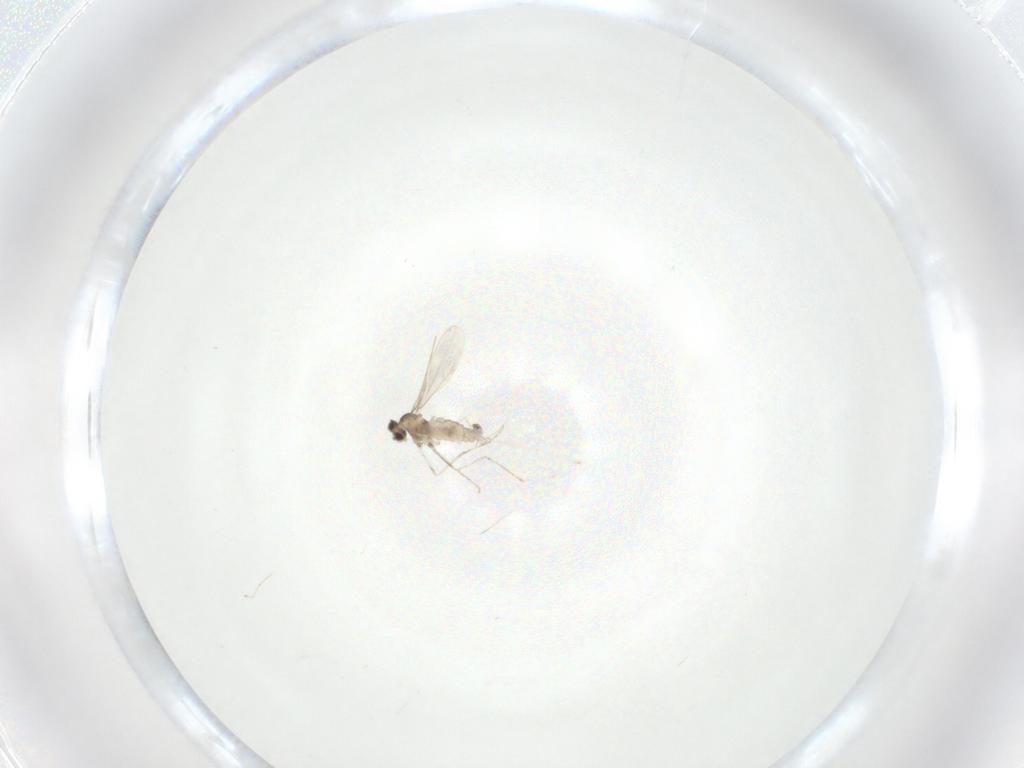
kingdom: Animalia
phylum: Arthropoda
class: Insecta
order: Diptera
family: Cecidomyiidae
